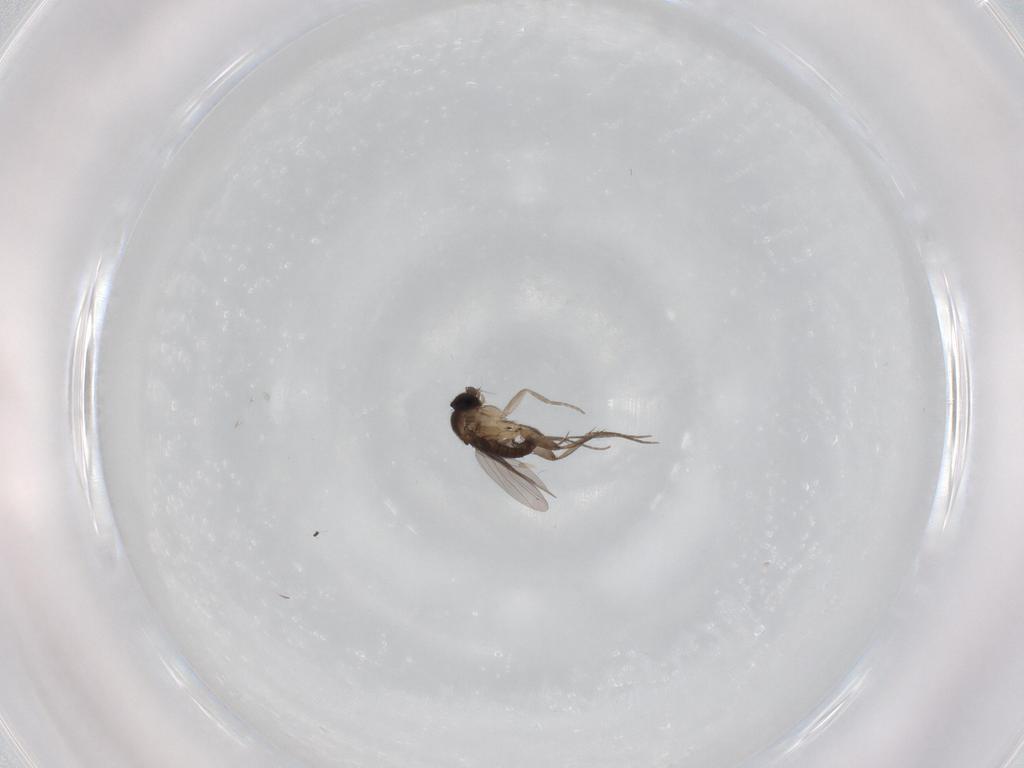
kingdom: Animalia
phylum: Arthropoda
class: Insecta
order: Diptera
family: Phoridae
